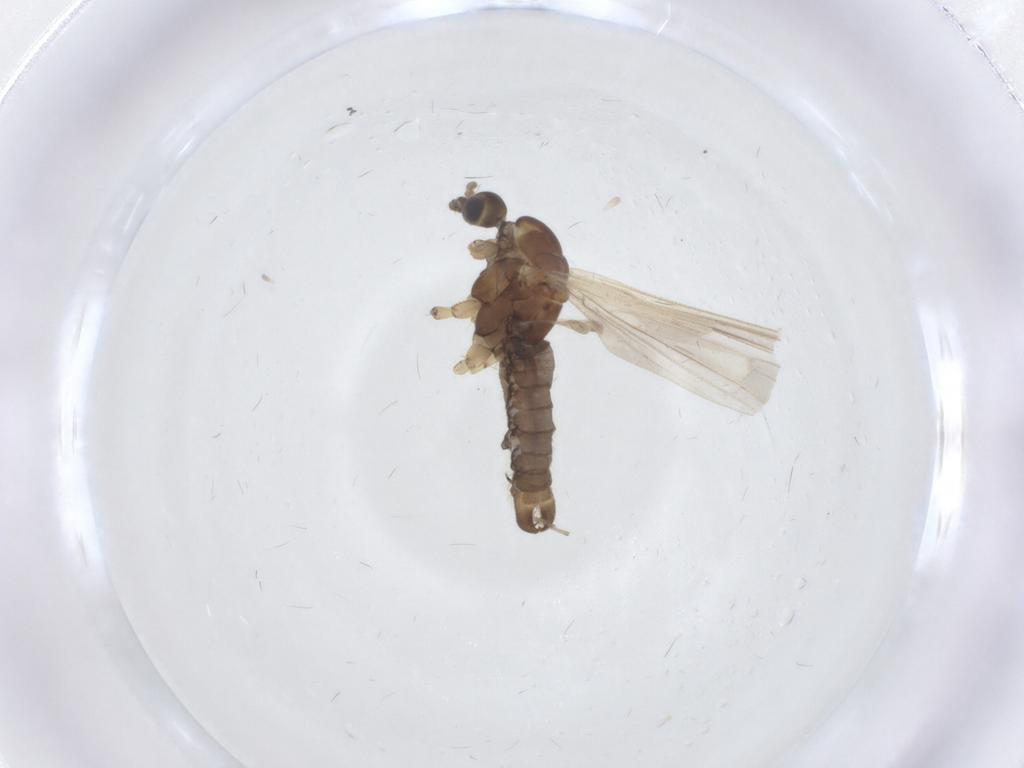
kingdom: Animalia
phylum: Arthropoda
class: Insecta
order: Diptera
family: Limoniidae
